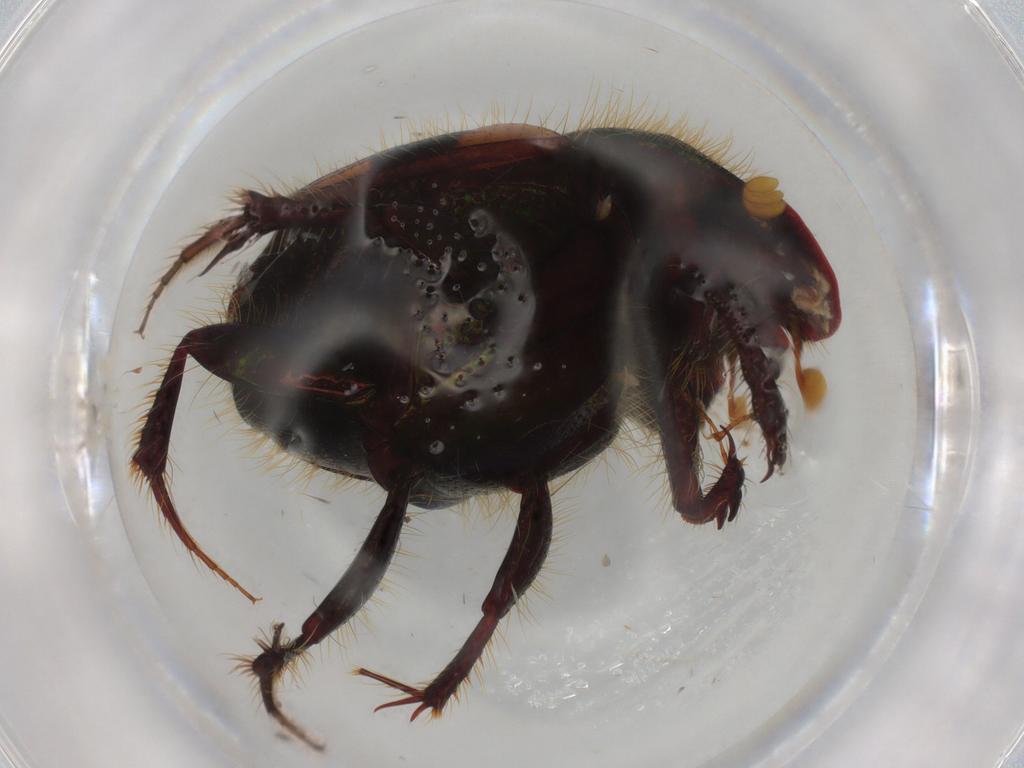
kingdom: Animalia
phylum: Arthropoda
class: Insecta
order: Coleoptera
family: Scarabaeidae
